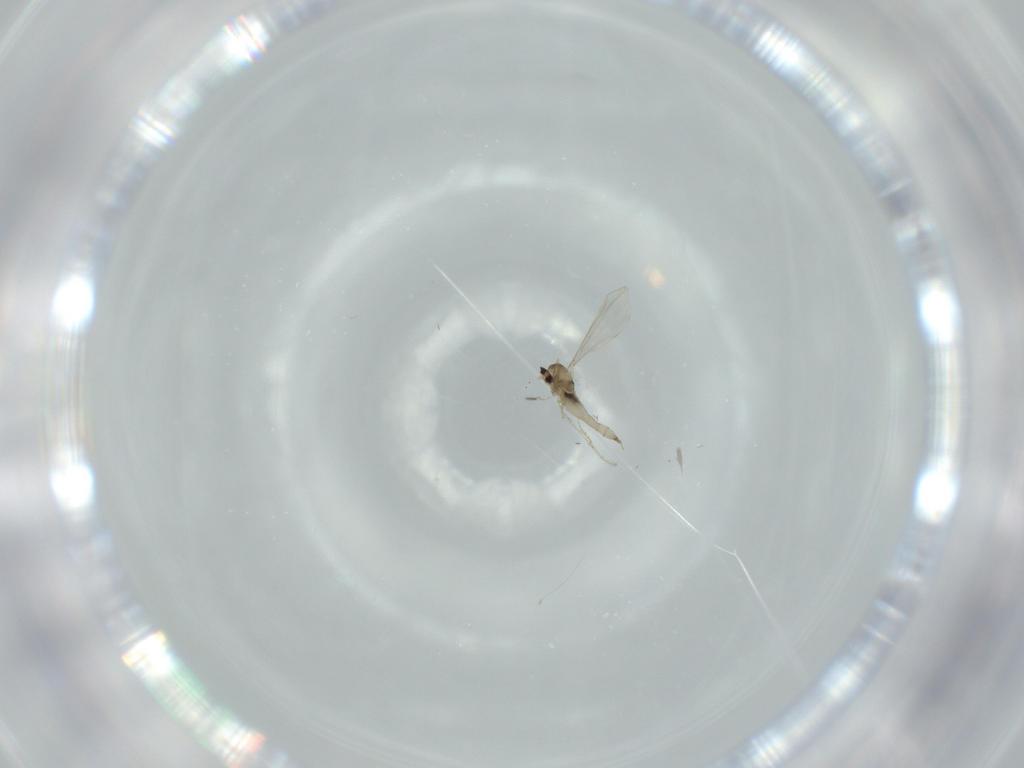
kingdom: Animalia
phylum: Arthropoda
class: Insecta
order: Diptera
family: Cecidomyiidae
